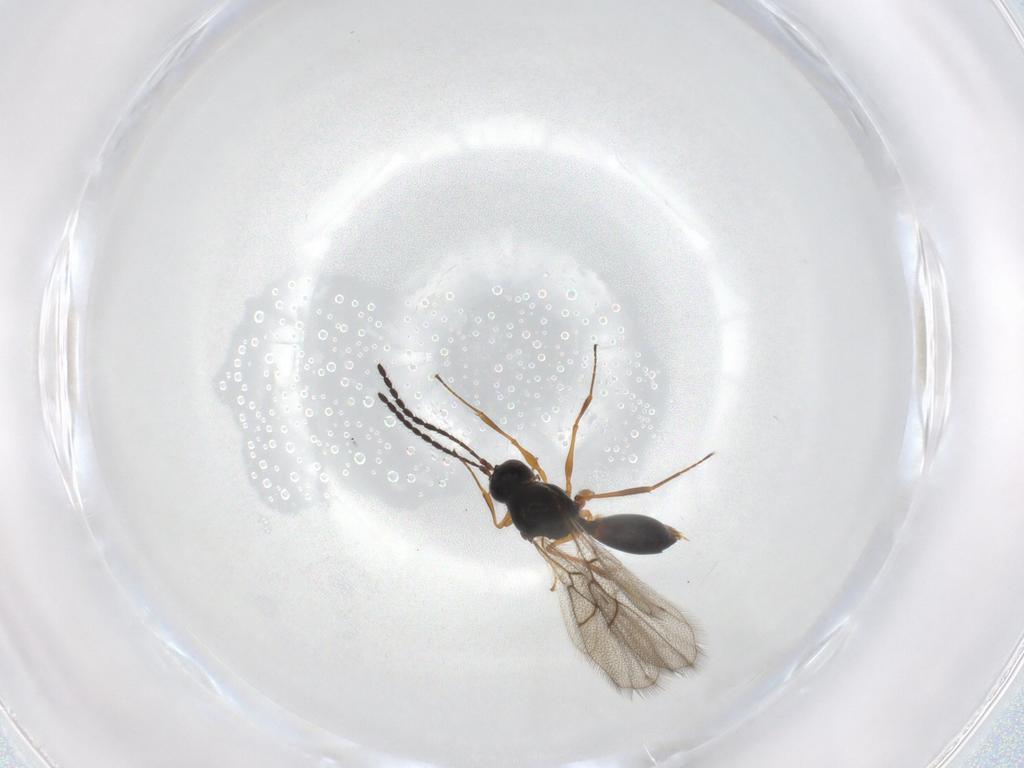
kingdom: Animalia
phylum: Arthropoda
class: Insecta
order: Hymenoptera
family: Figitidae
